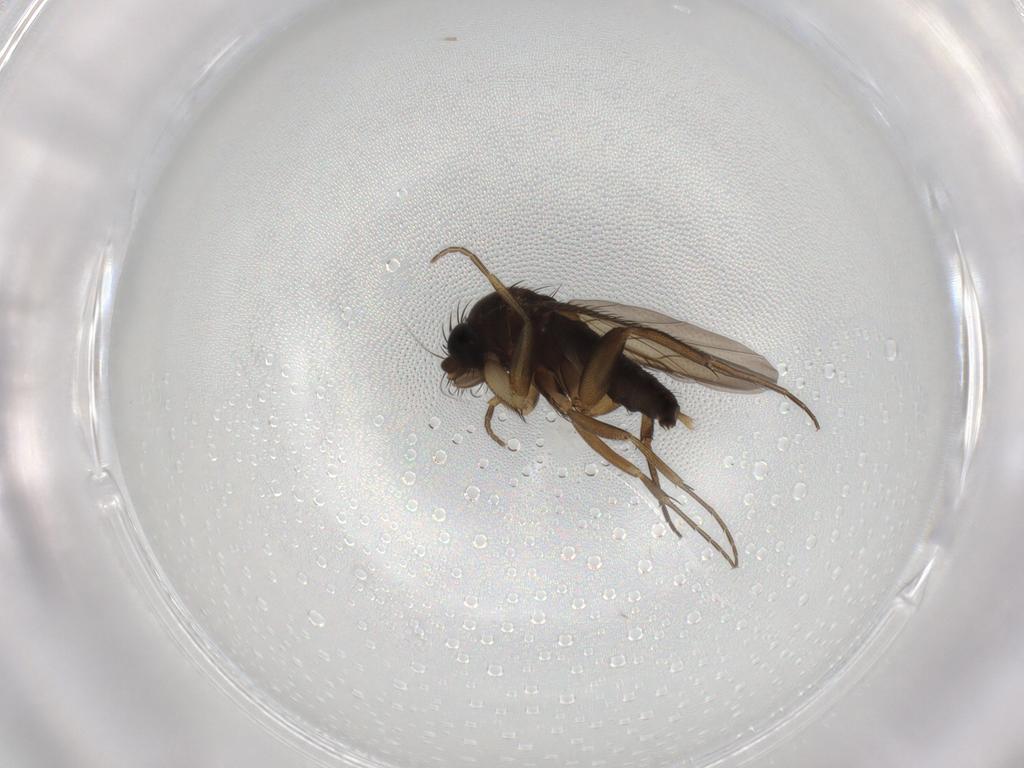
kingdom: Animalia
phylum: Arthropoda
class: Insecta
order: Diptera
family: Phoridae
